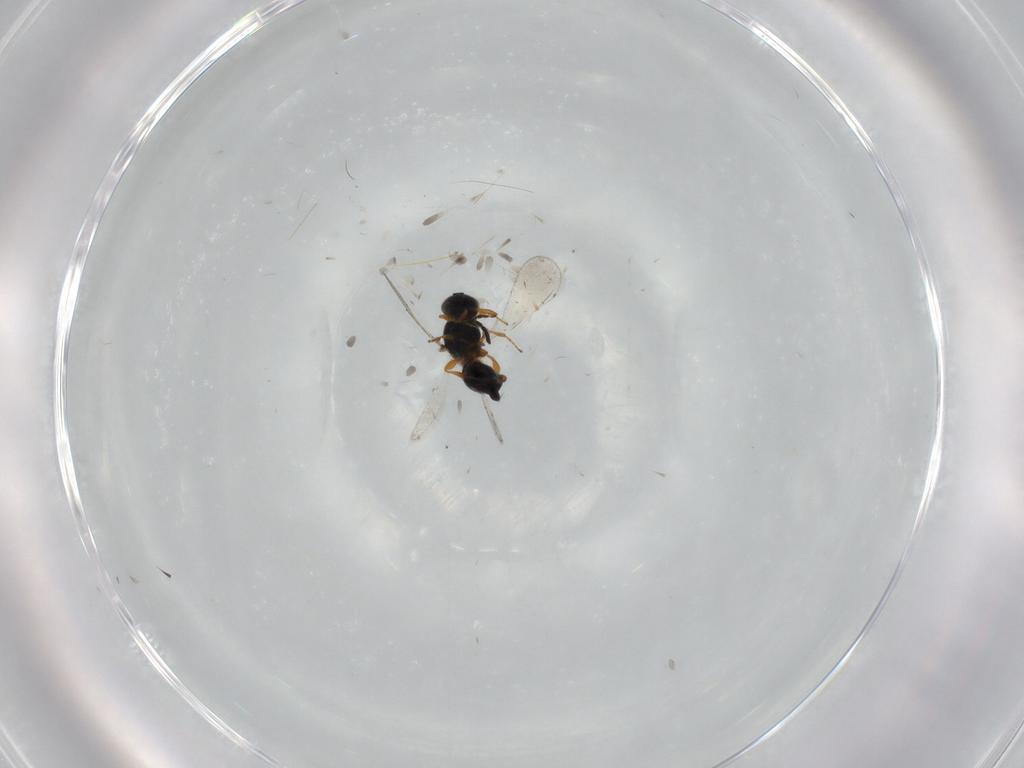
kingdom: Animalia
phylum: Arthropoda
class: Insecta
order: Hymenoptera
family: Platygastridae
